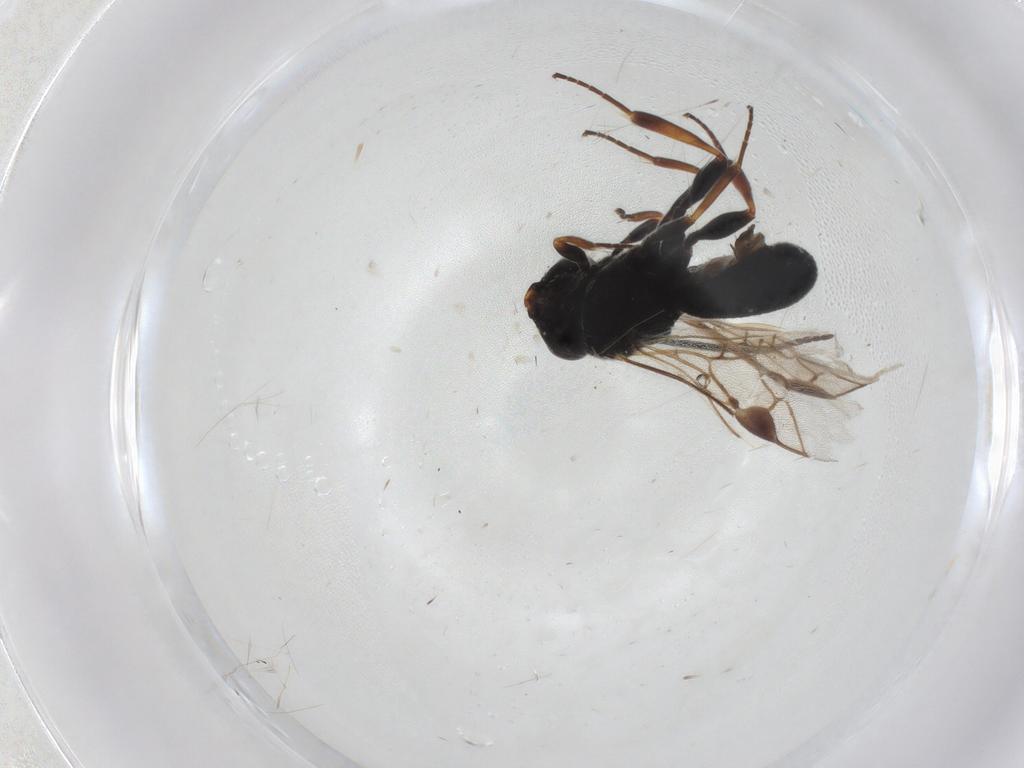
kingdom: Animalia
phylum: Arthropoda
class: Insecta
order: Hymenoptera
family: Braconidae
